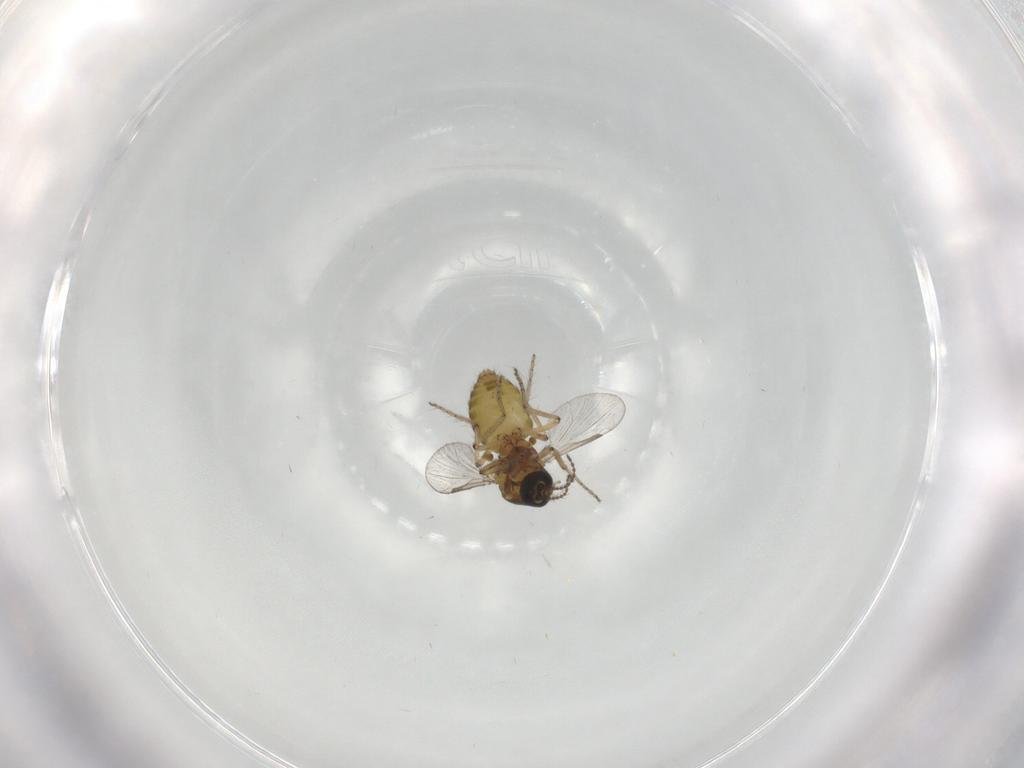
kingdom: Animalia
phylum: Arthropoda
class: Insecta
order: Diptera
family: Ceratopogonidae
